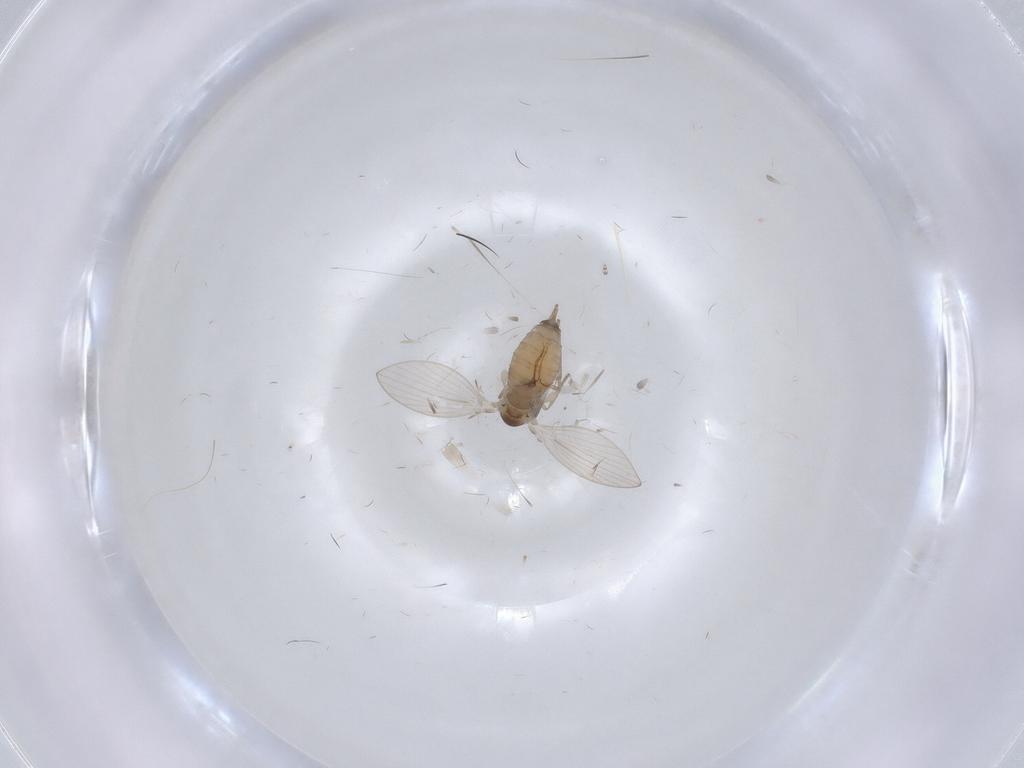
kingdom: Animalia
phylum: Arthropoda
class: Insecta
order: Diptera
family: Psychodidae
